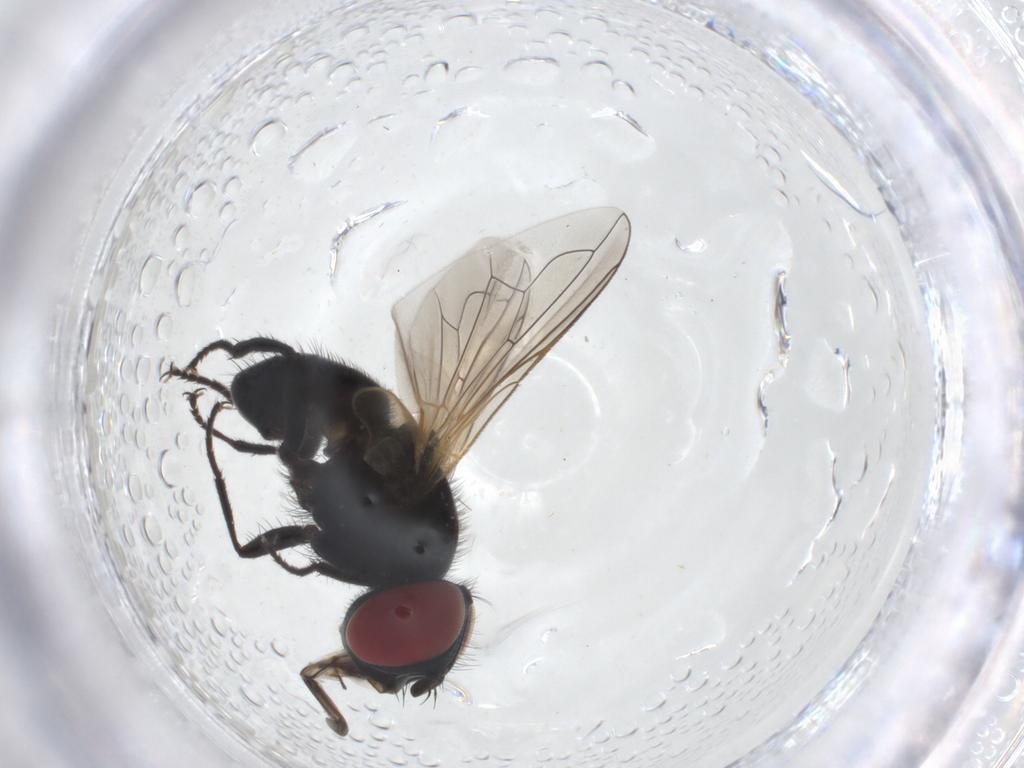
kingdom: Animalia
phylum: Arthropoda
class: Insecta
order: Diptera
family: Tachinidae
